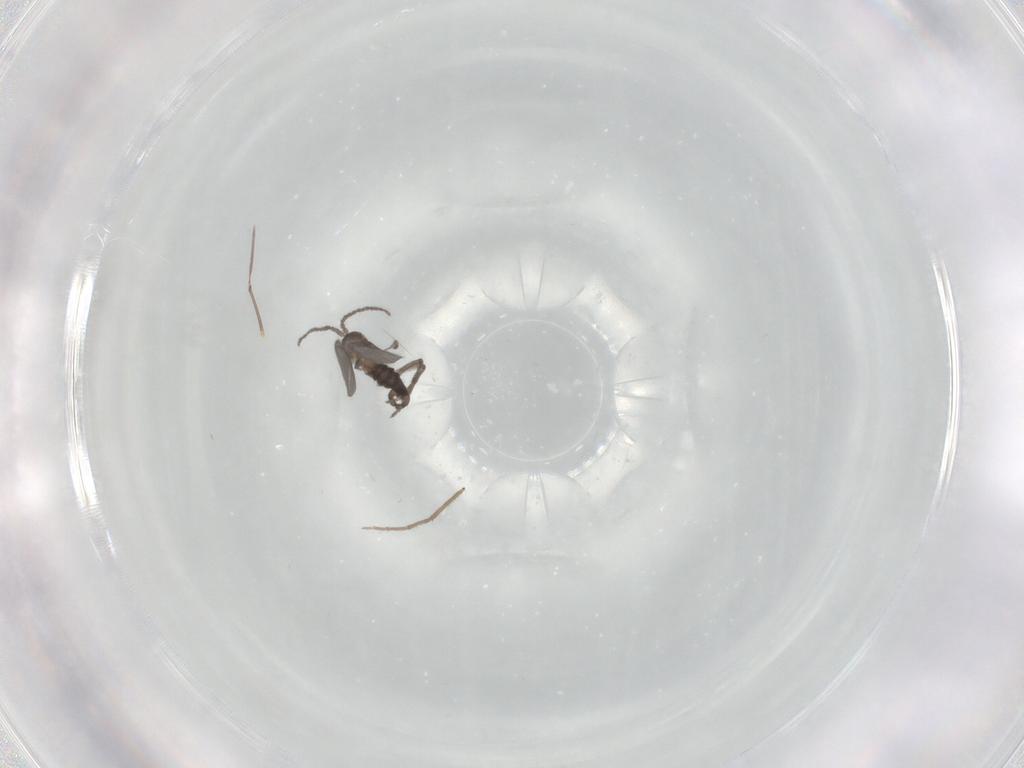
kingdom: Animalia
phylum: Arthropoda
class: Insecta
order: Diptera
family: Sciaridae
